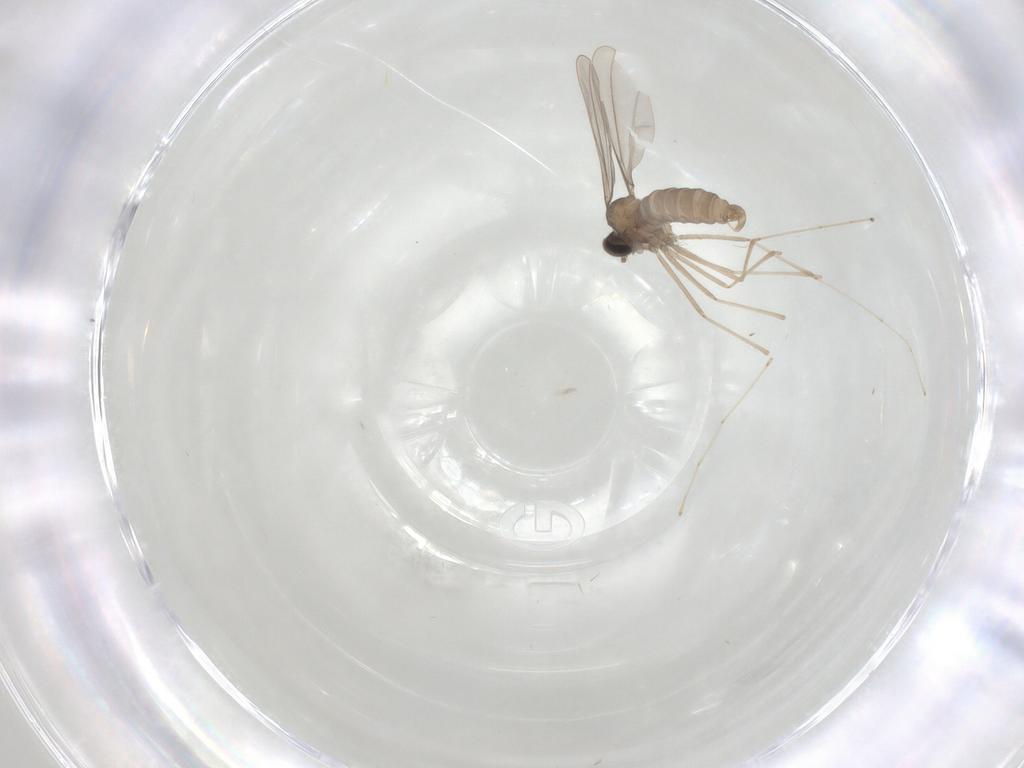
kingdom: Animalia
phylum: Arthropoda
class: Insecta
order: Diptera
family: Cecidomyiidae
